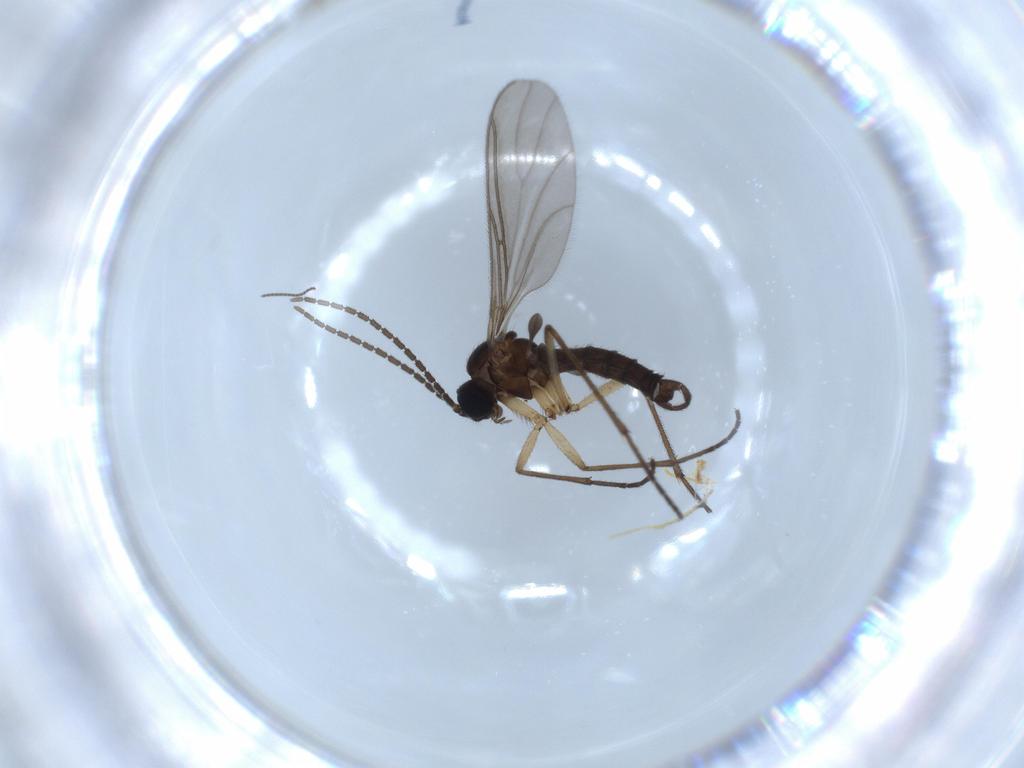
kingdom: Animalia
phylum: Arthropoda
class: Insecta
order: Diptera
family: Sciaridae
